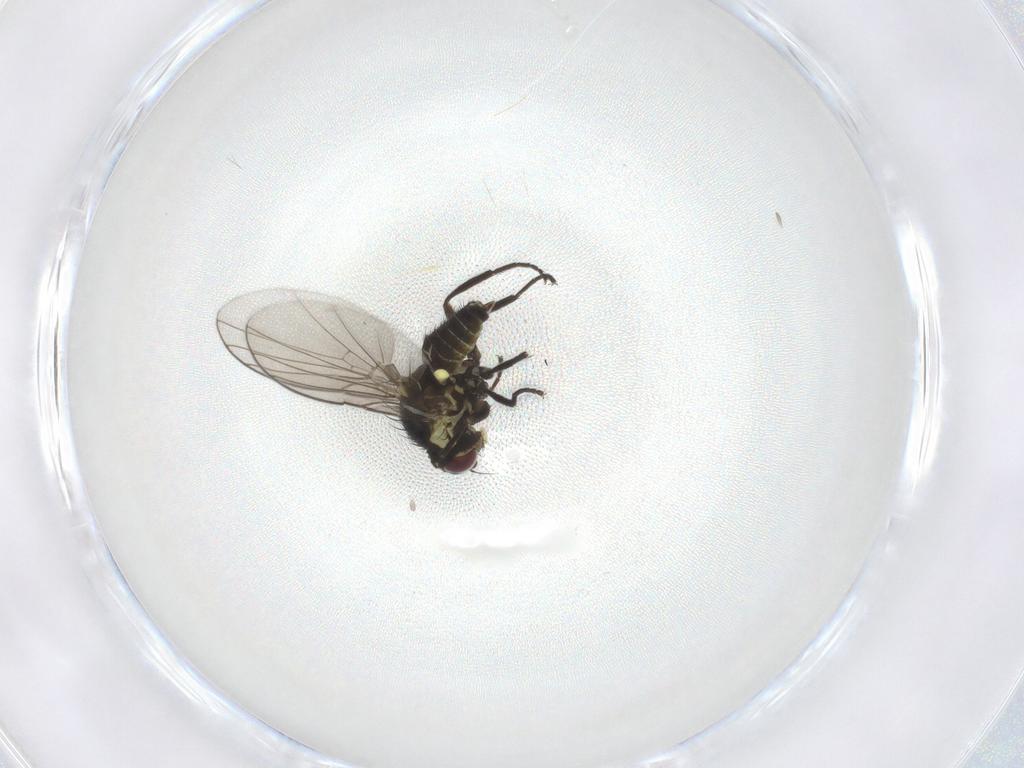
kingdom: Animalia
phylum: Arthropoda
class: Insecta
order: Diptera
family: Agromyzidae
